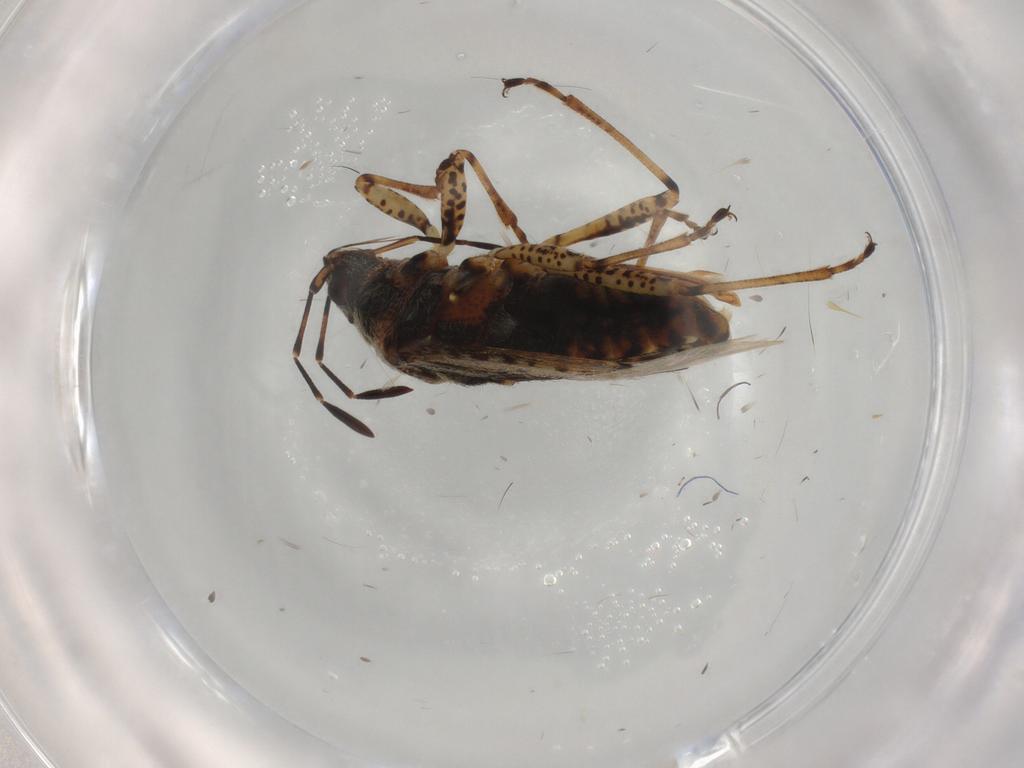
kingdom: Animalia
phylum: Arthropoda
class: Insecta
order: Hemiptera
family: Lygaeidae
